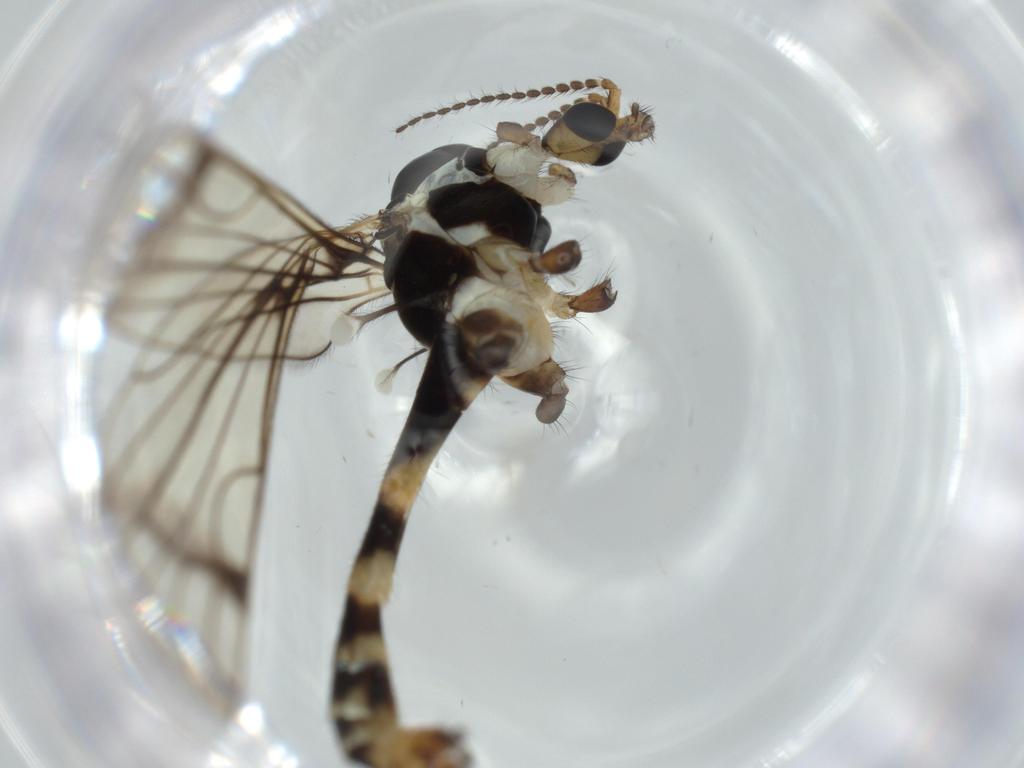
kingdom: Animalia
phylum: Arthropoda
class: Insecta
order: Diptera
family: Limoniidae
